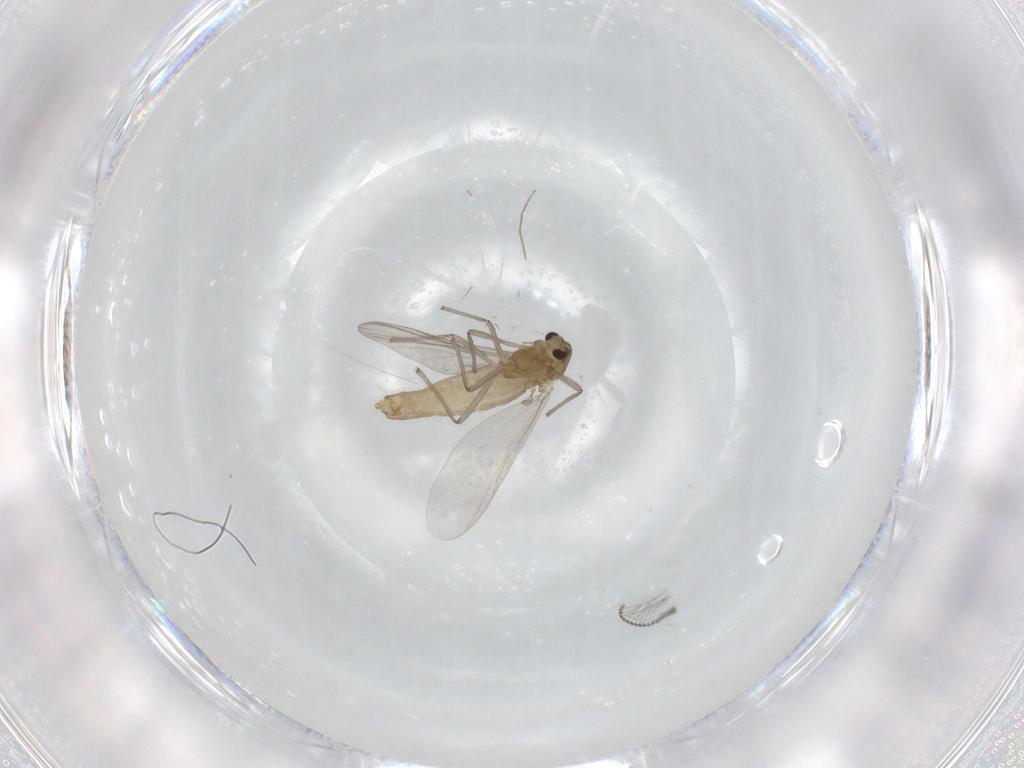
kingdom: Animalia
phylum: Arthropoda
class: Insecta
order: Diptera
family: Chironomidae
